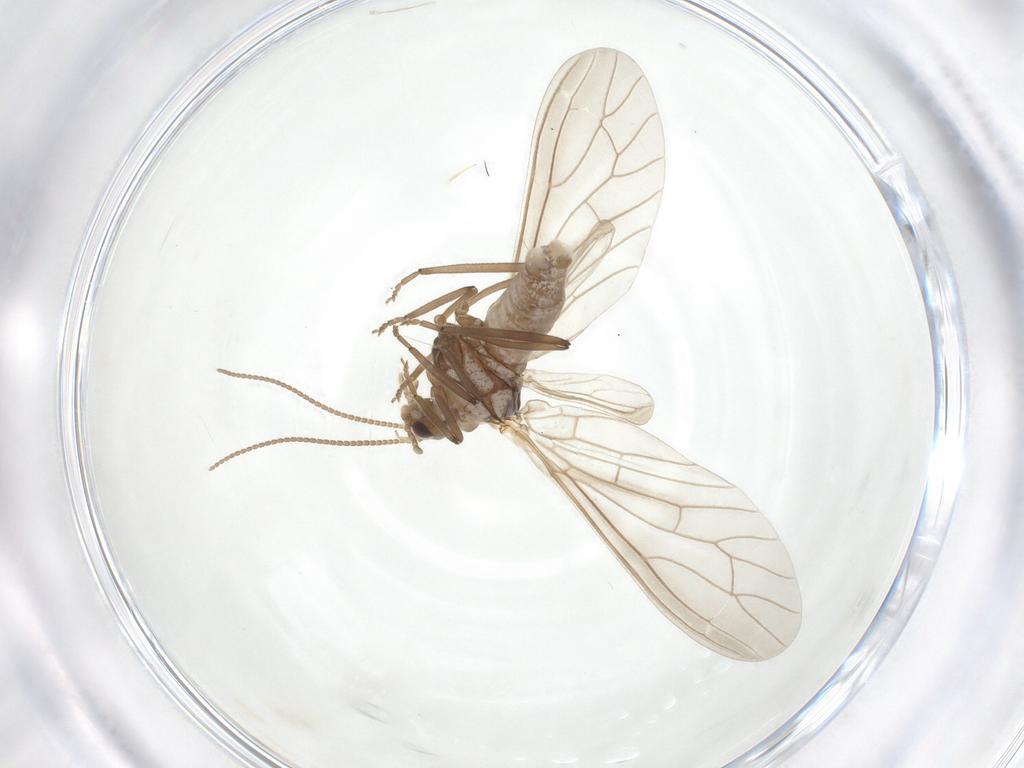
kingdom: Animalia
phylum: Arthropoda
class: Insecta
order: Neuroptera
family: Coniopterygidae
